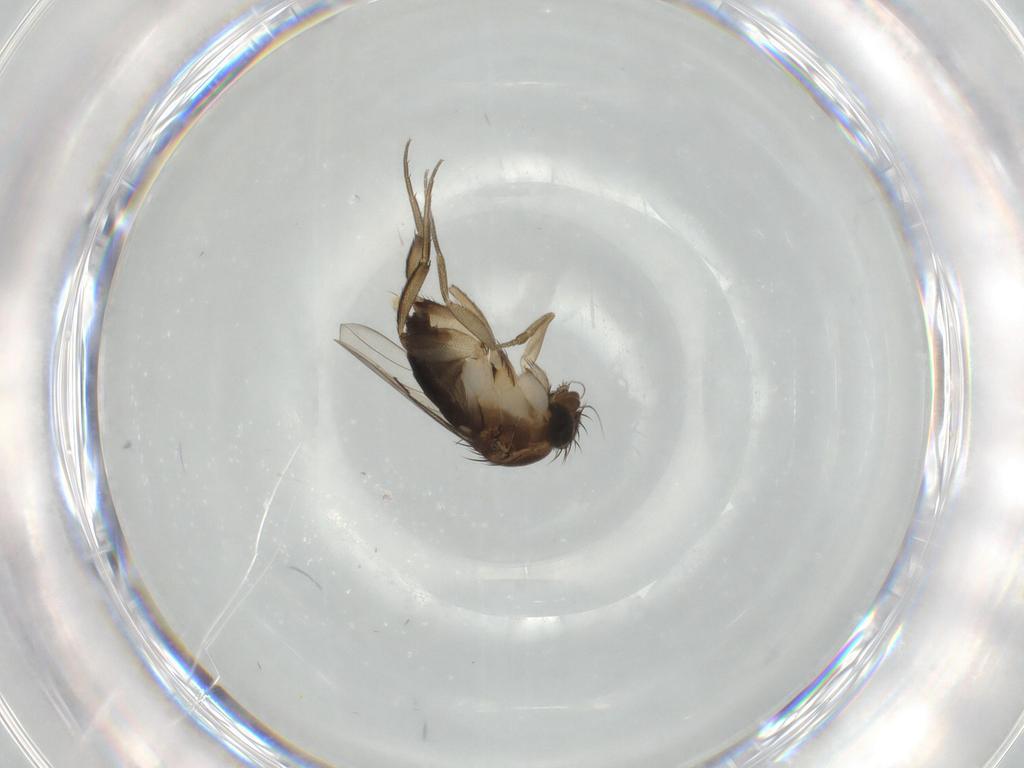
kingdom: Animalia
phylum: Arthropoda
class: Insecta
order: Diptera
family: Phoridae
